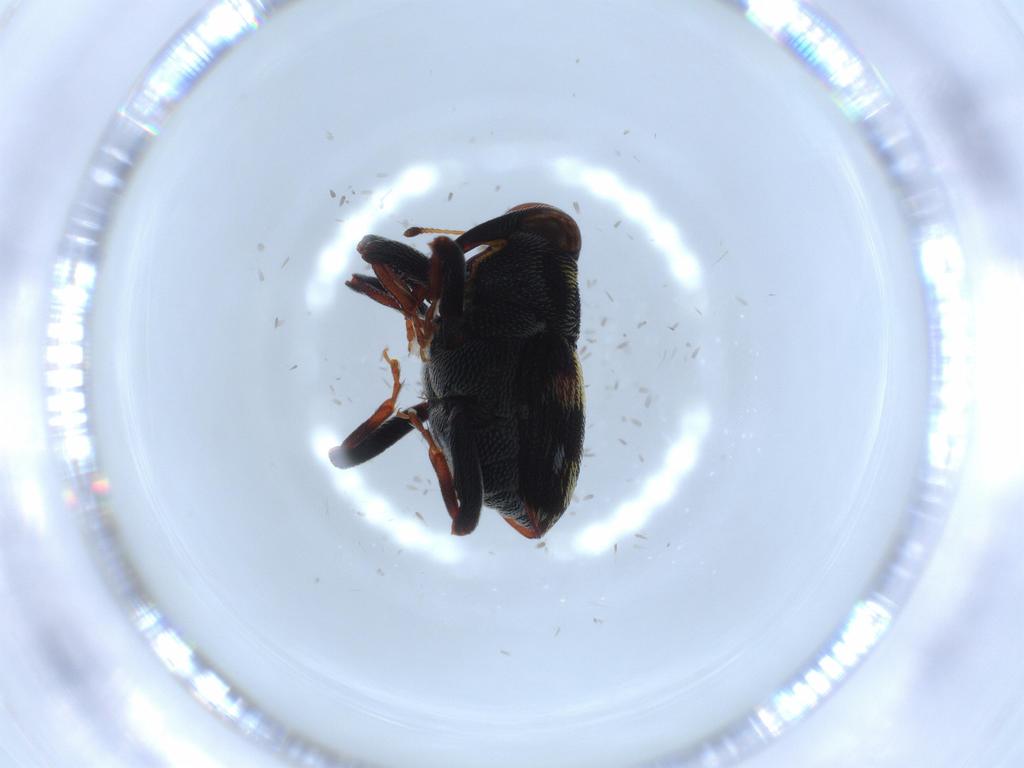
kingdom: Animalia
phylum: Arthropoda
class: Insecta
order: Coleoptera
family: Curculionidae
